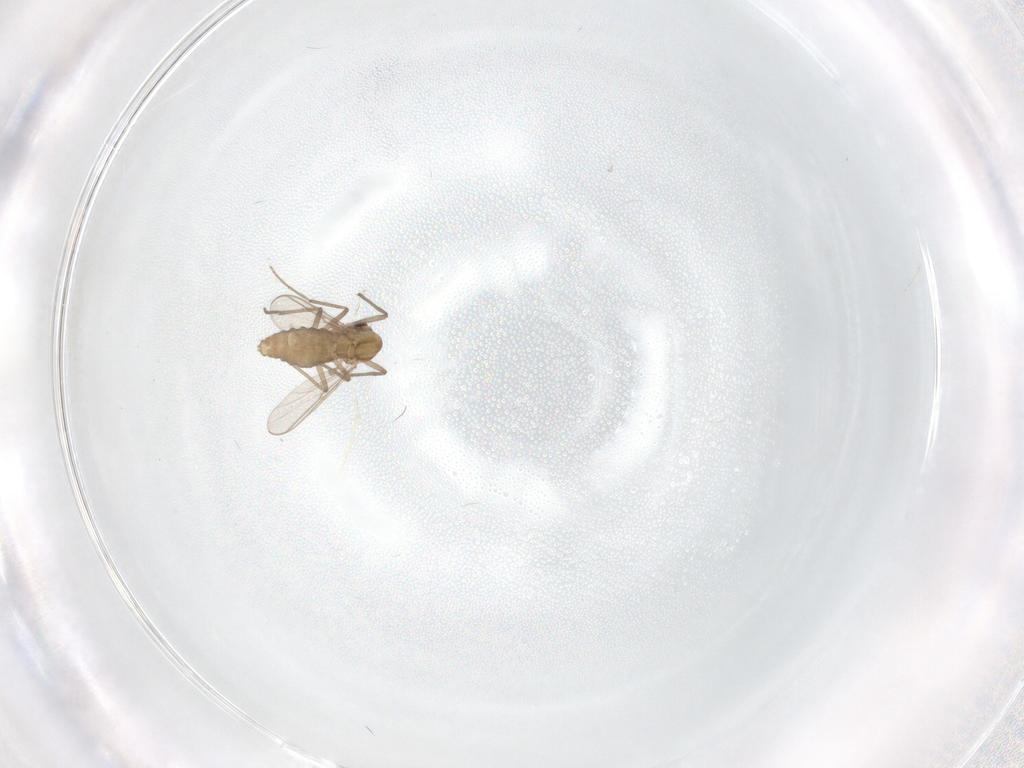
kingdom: Animalia
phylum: Arthropoda
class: Insecta
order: Diptera
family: Chironomidae
